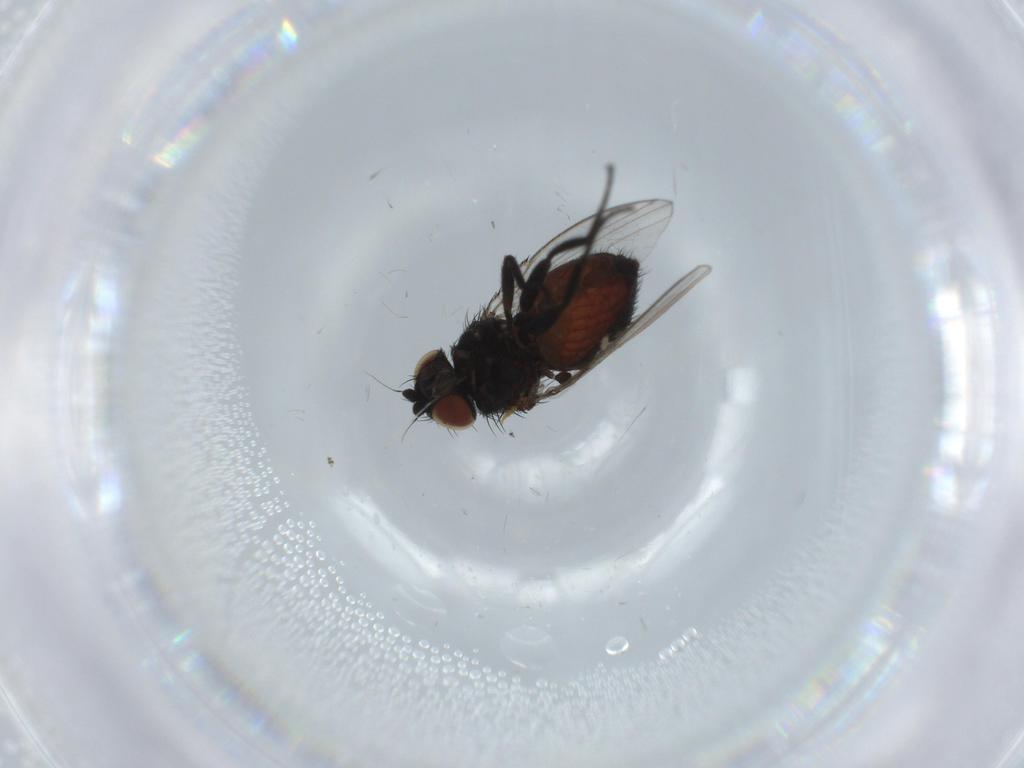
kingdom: Animalia
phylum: Arthropoda
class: Insecta
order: Diptera
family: Milichiidae
